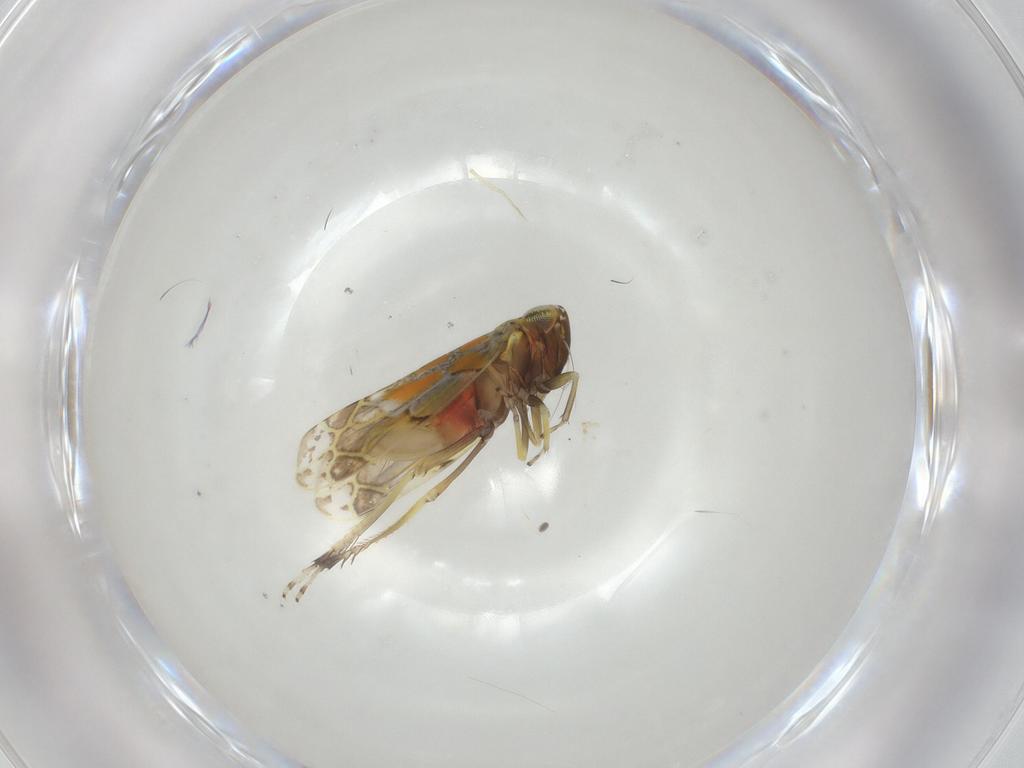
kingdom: Animalia
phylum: Arthropoda
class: Insecta
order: Hemiptera
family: Cicadellidae
